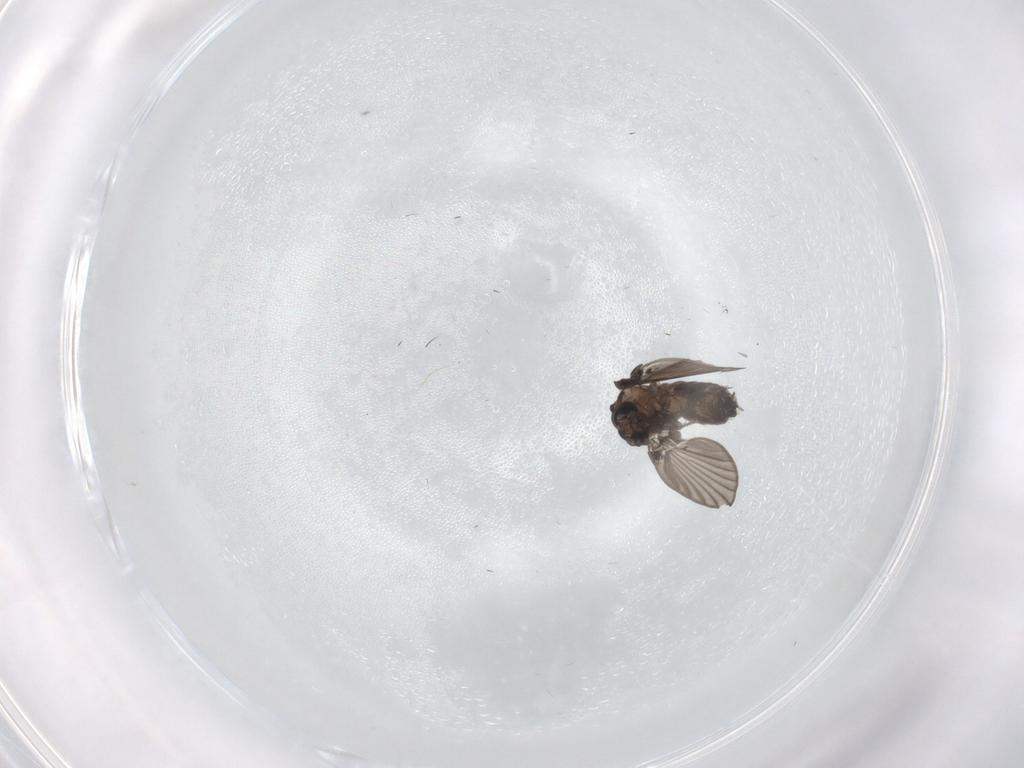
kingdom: Animalia
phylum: Arthropoda
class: Insecta
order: Diptera
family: Psychodidae
